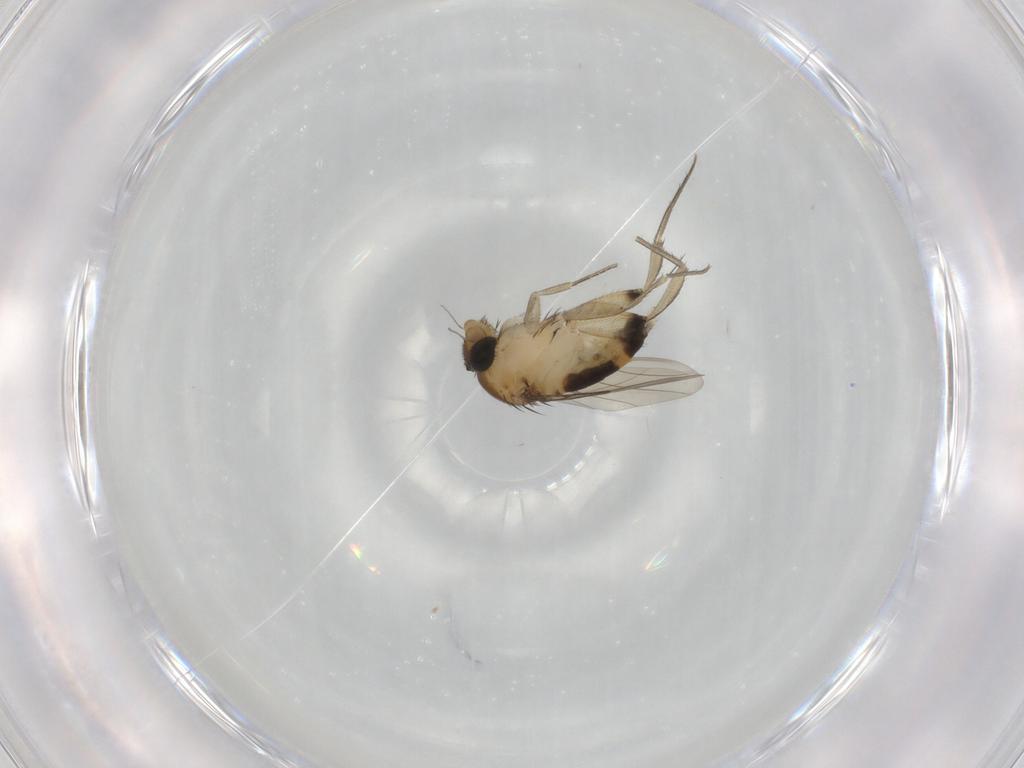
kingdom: Animalia
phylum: Arthropoda
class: Insecta
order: Diptera
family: Phoridae
